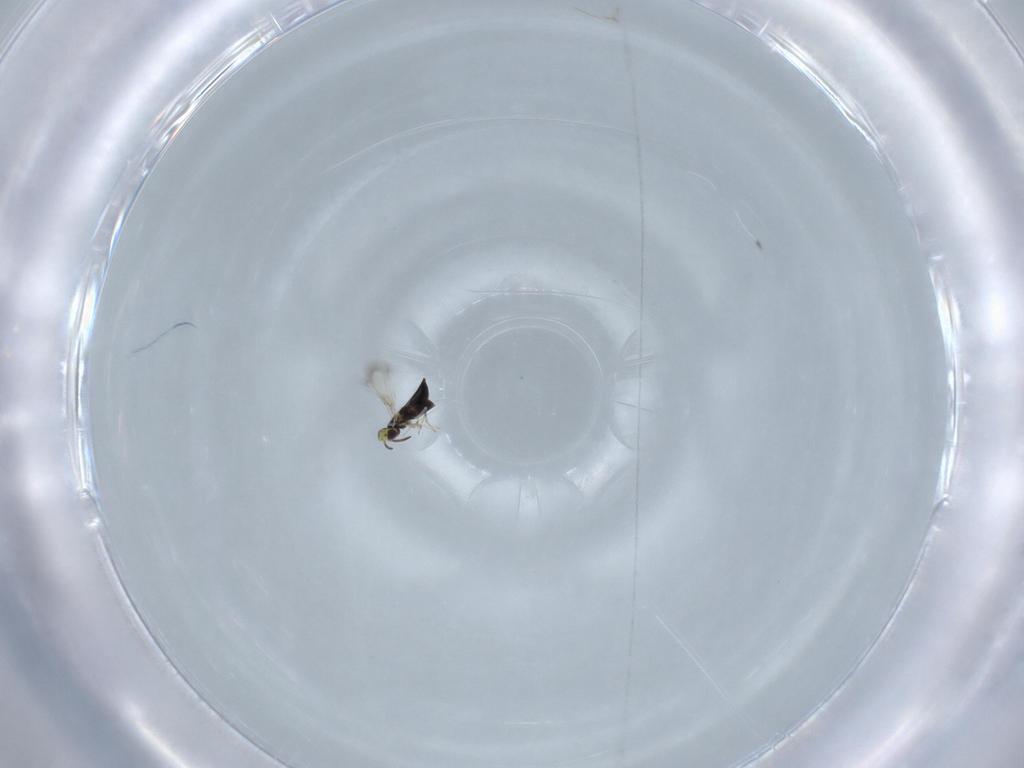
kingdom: Animalia
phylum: Arthropoda
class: Insecta
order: Hymenoptera
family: Signiphoridae
